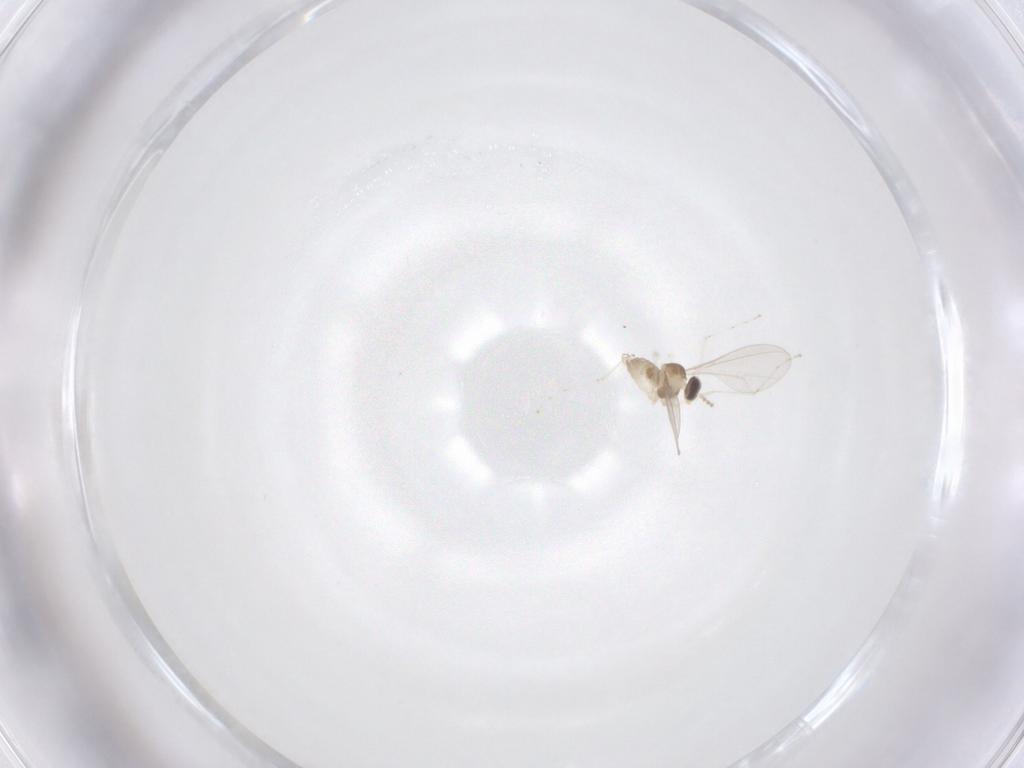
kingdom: Animalia
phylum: Arthropoda
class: Insecta
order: Diptera
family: Cecidomyiidae
